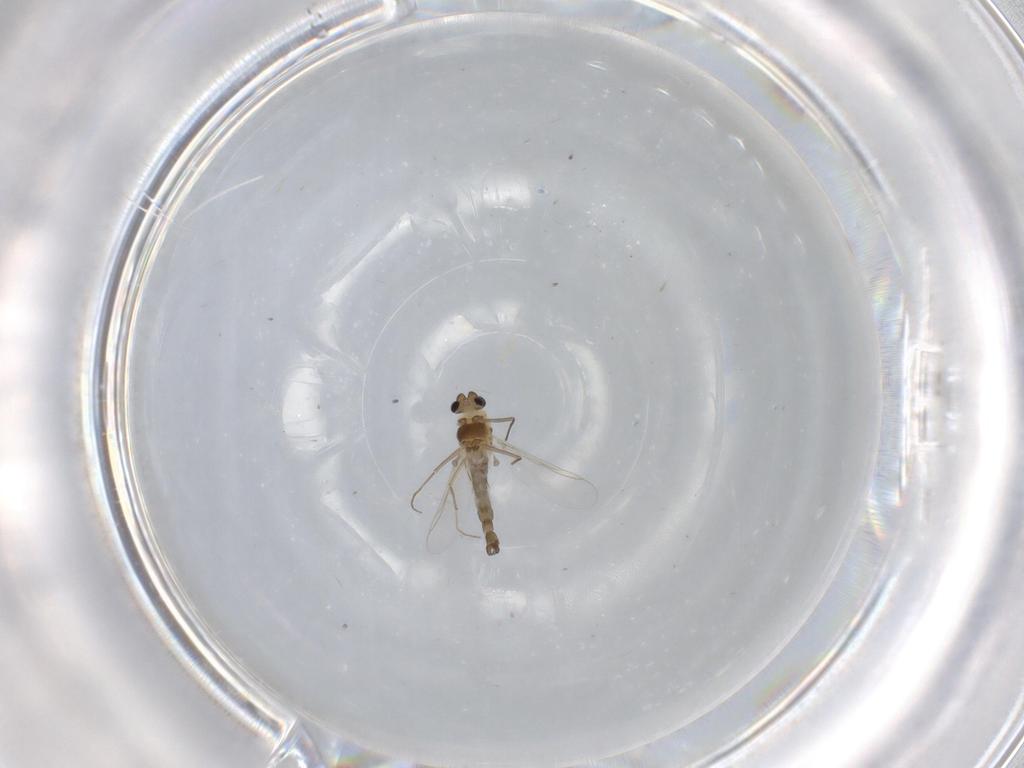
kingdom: Animalia
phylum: Arthropoda
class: Insecta
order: Diptera
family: Chironomidae
